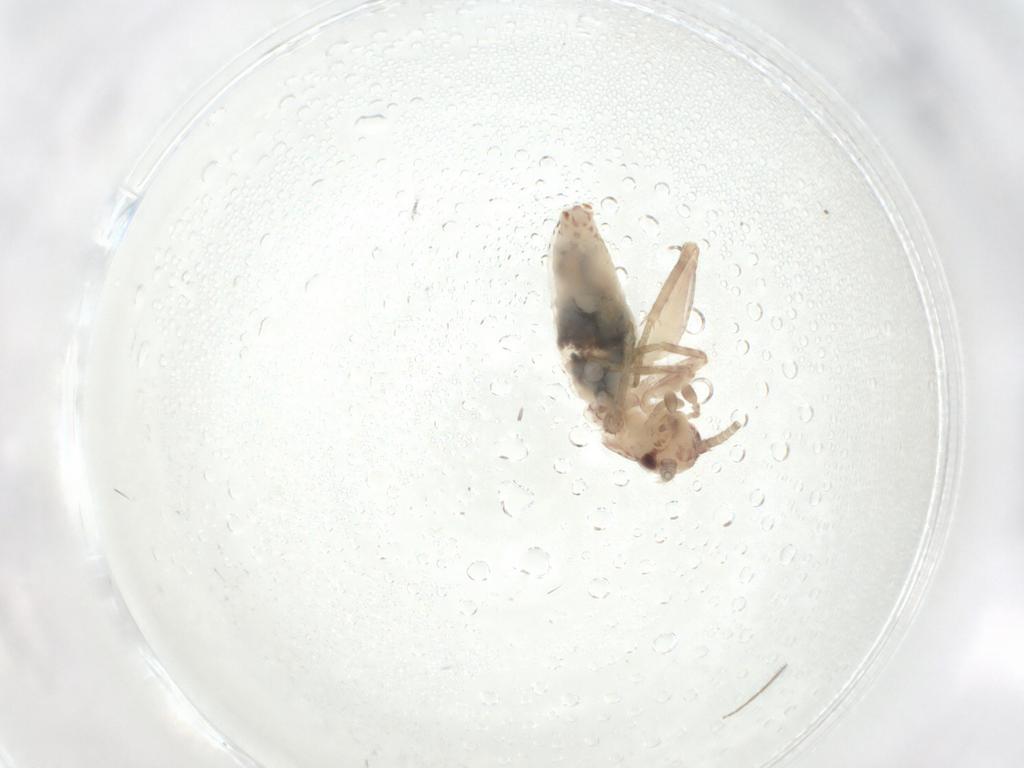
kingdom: Animalia
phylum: Arthropoda
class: Insecta
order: Orthoptera
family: Mogoplistidae
